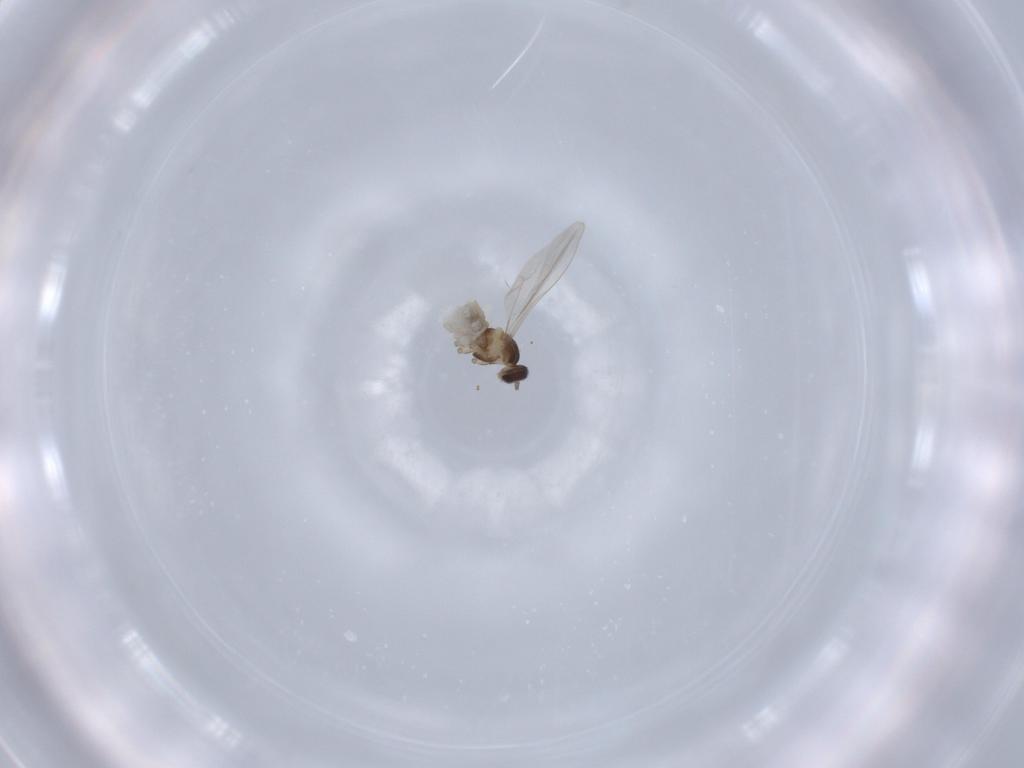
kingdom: Animalia
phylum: Arthropoda
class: Insecta
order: Diptera
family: Cecidomyiidae
